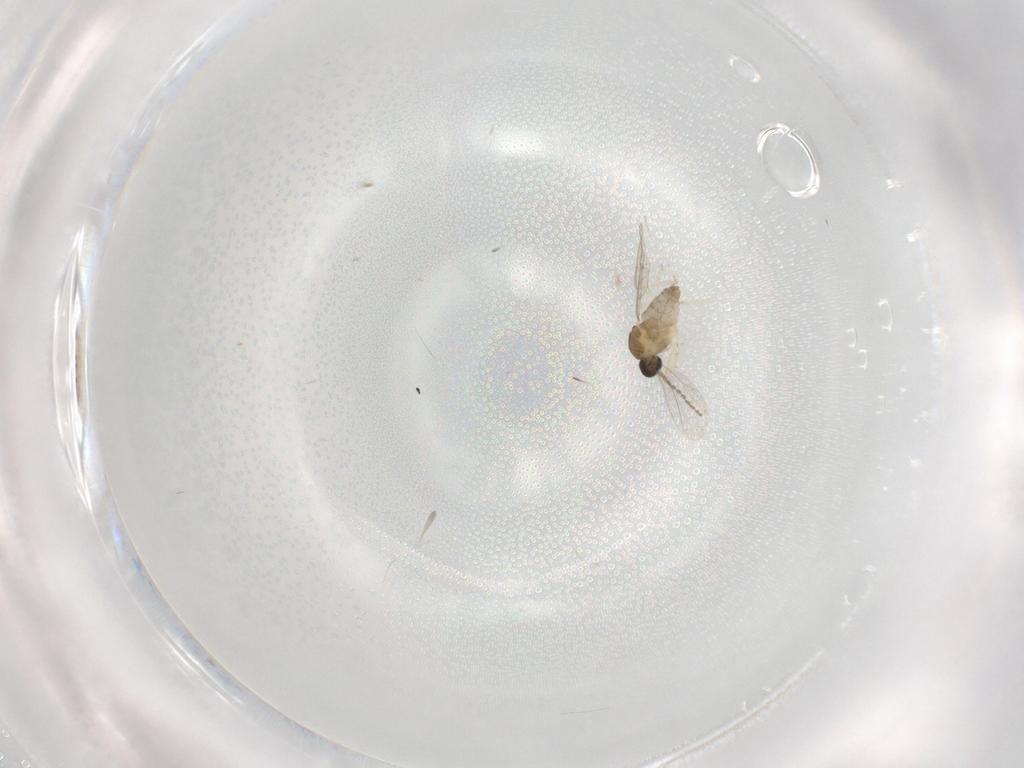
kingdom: Animalia
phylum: Arthropoda
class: Insecta
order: Diptera
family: Cecidomyiidae
